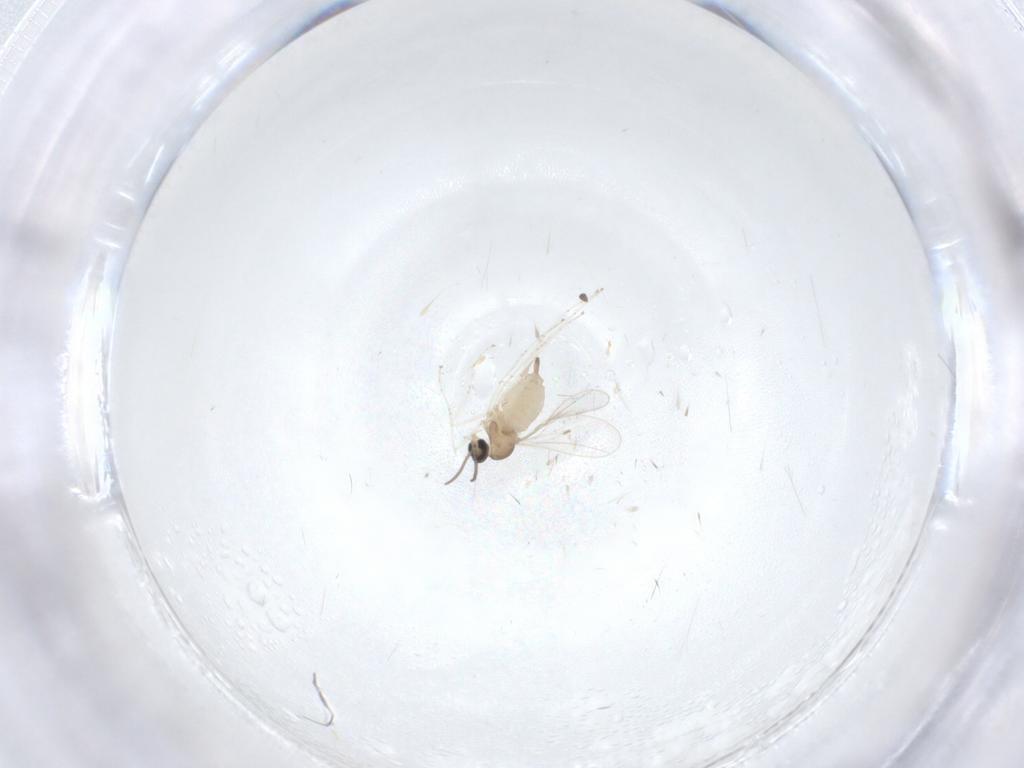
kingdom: Animalia
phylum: Arthropoda
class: Insecta
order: Diptera
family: Cecidomyiidae
